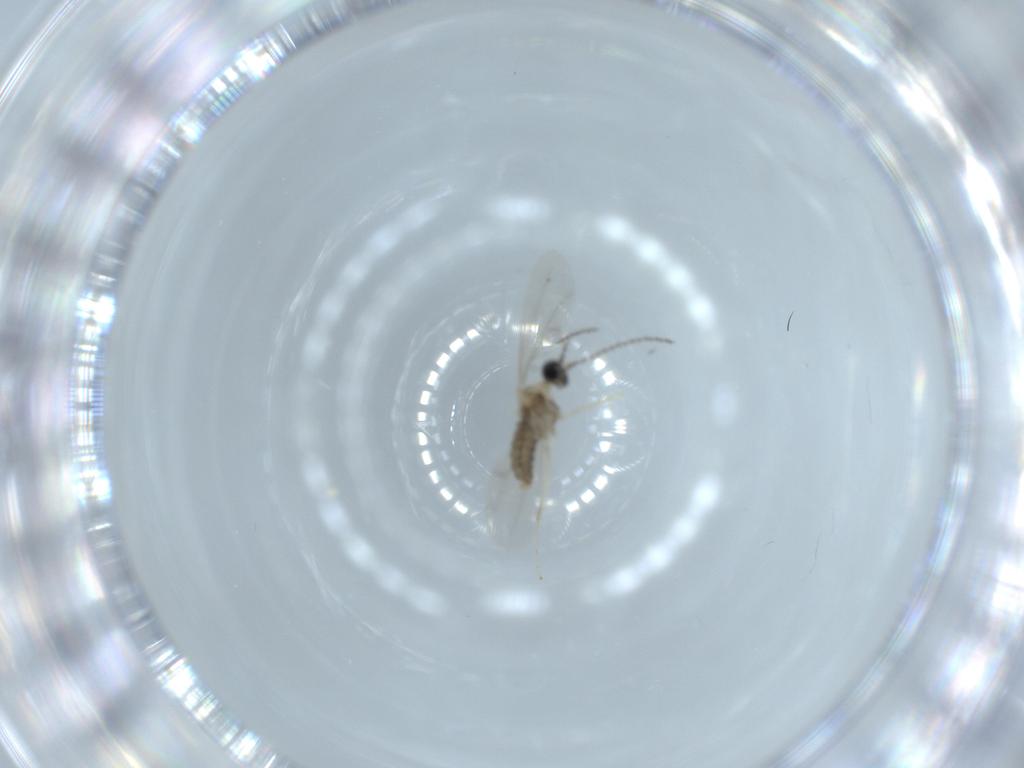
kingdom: Animalia
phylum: Arthropoda
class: Insecta
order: Diptera
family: Cecidomyiidae
